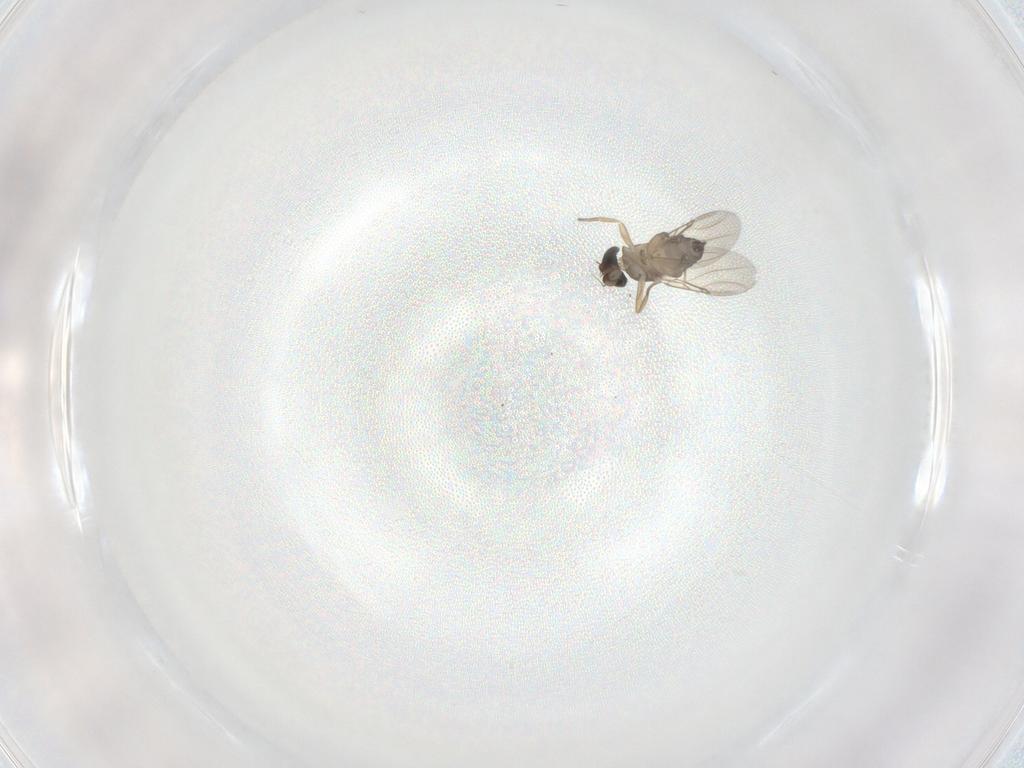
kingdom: Animalia
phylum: Arthropoda
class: Insecta
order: Diptera
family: Phoridae
